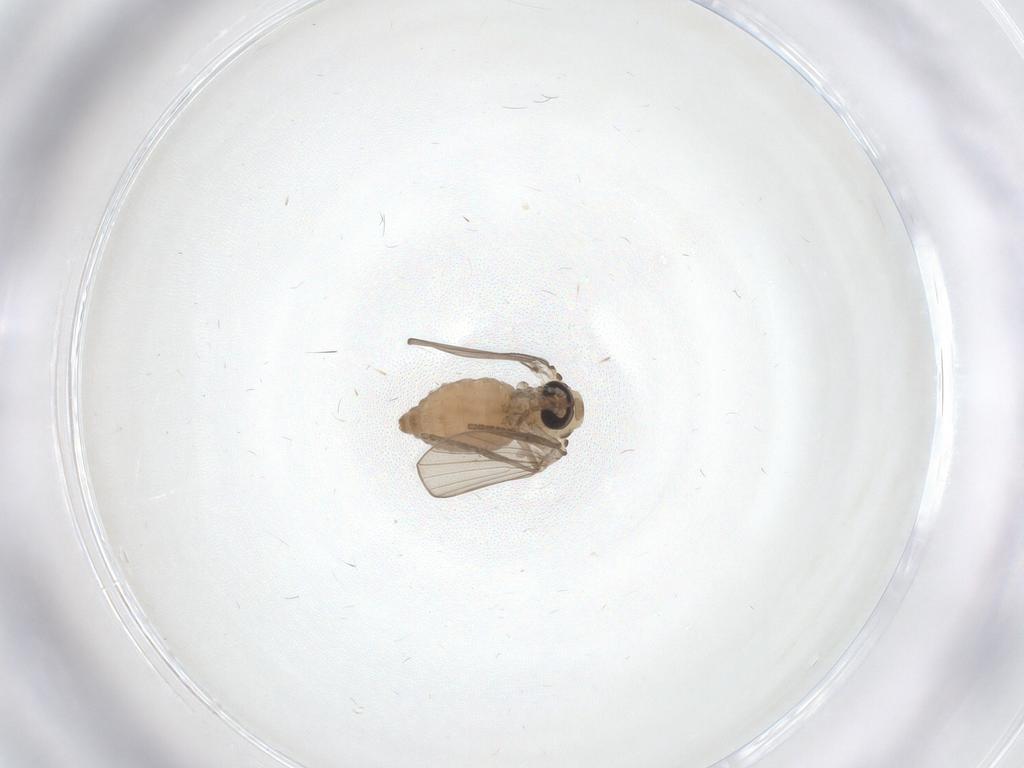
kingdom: Animalia
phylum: Arthropoda
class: Insecta
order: Diptera
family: Psychodidae
